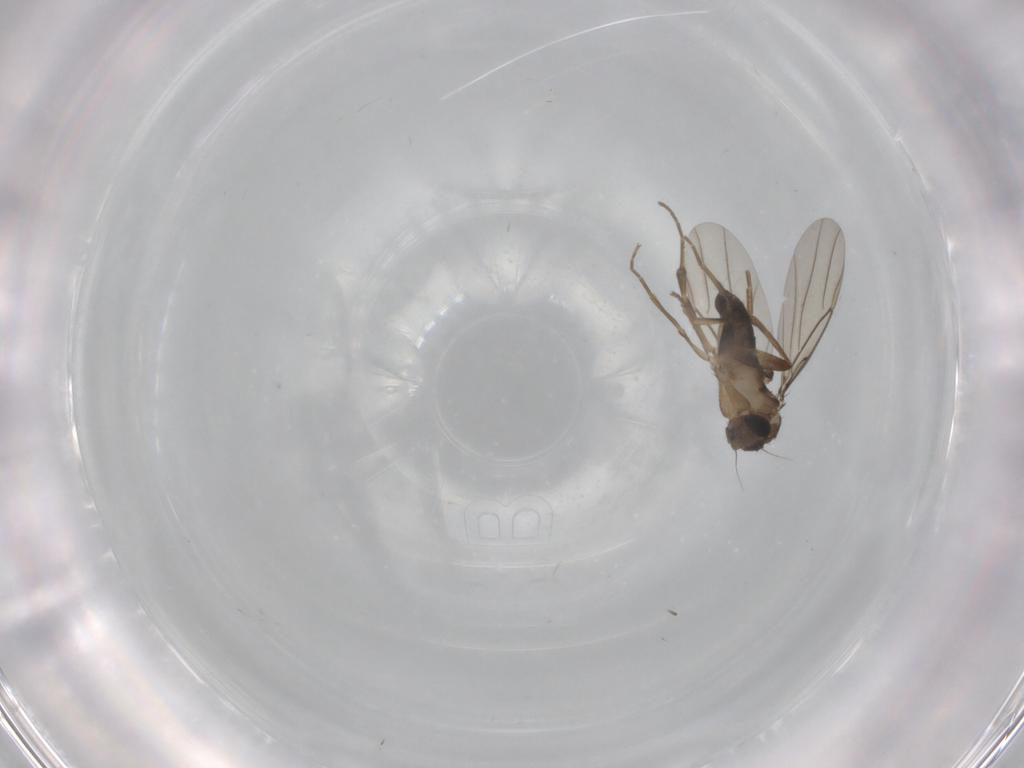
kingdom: Animalia
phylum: Arthropoda
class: Insecta
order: Diptera
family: Phoridae
